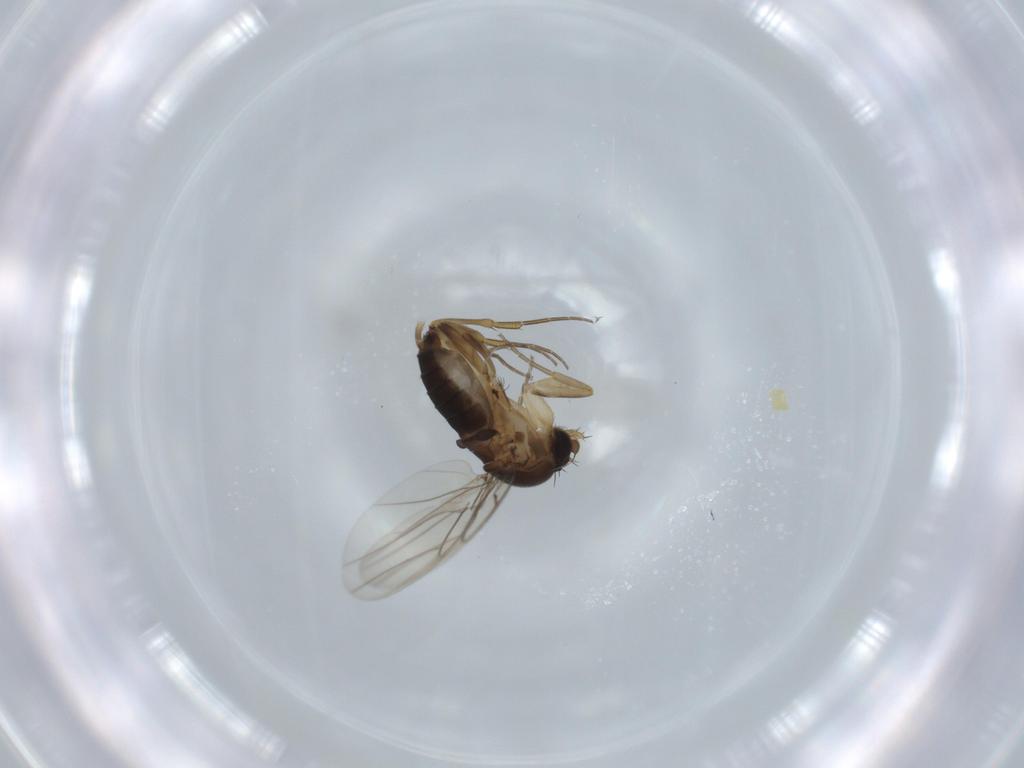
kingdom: Animalia
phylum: Arthropoda
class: Insecta
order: Diptera
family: Phoridae
